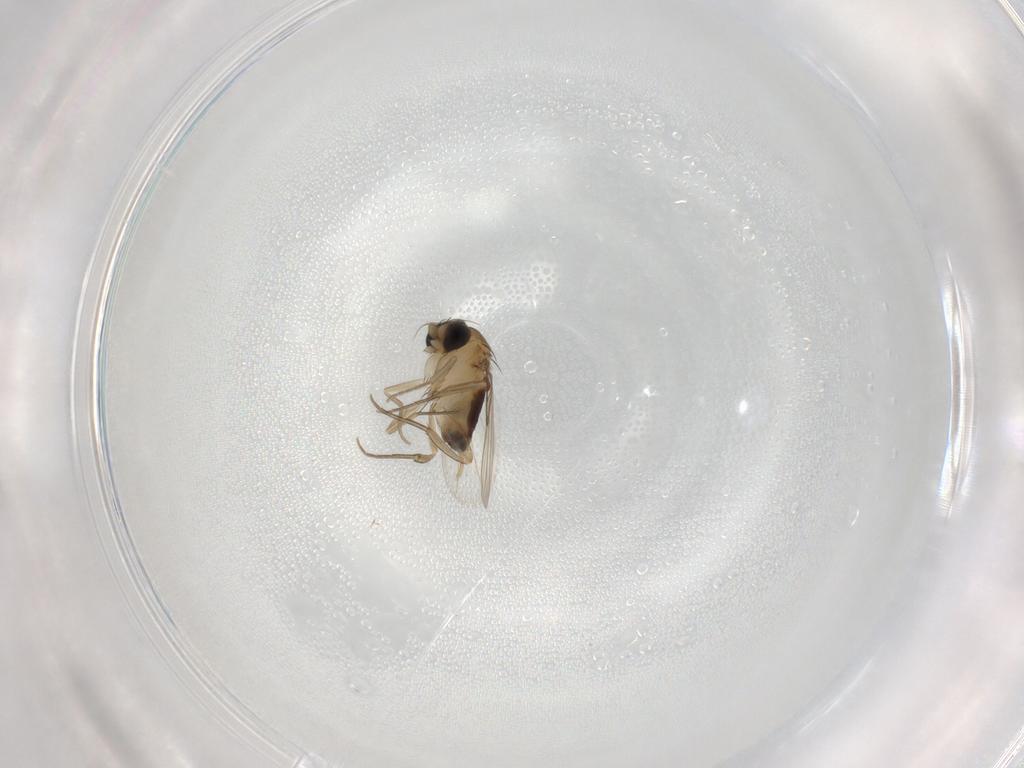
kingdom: Animalia
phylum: Arthropoda
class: Insecta
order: Diptera
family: Phoridae
